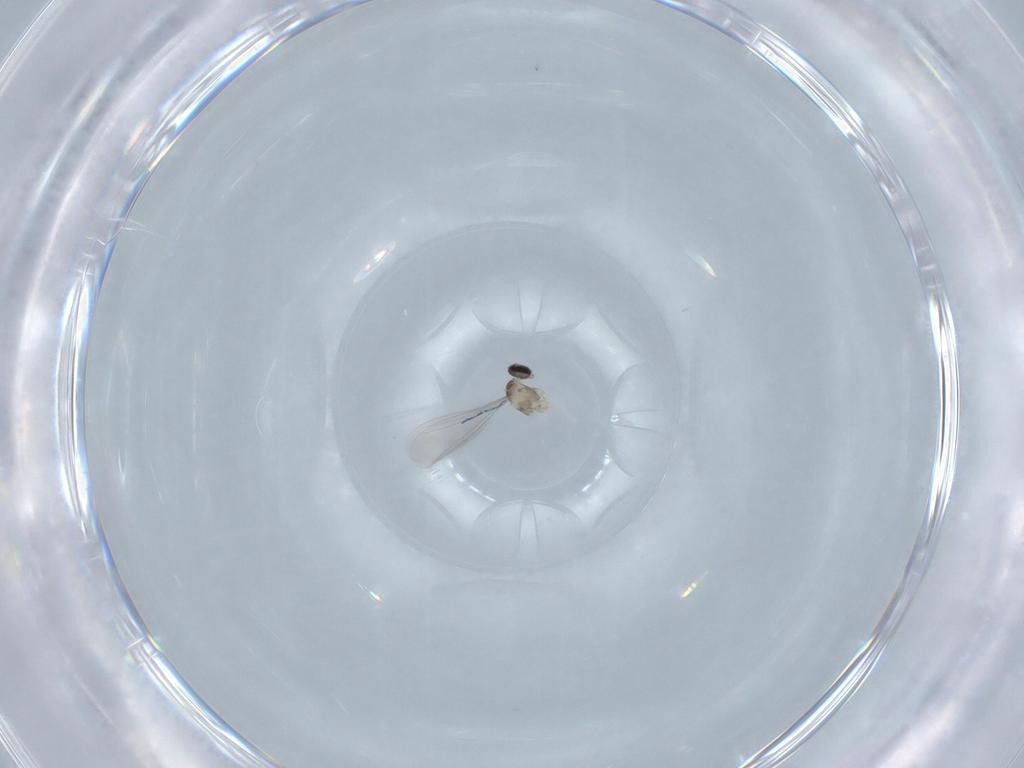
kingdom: Animalia
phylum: Arthropoda
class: Insecta
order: Diptera
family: Cecidomyiidae
